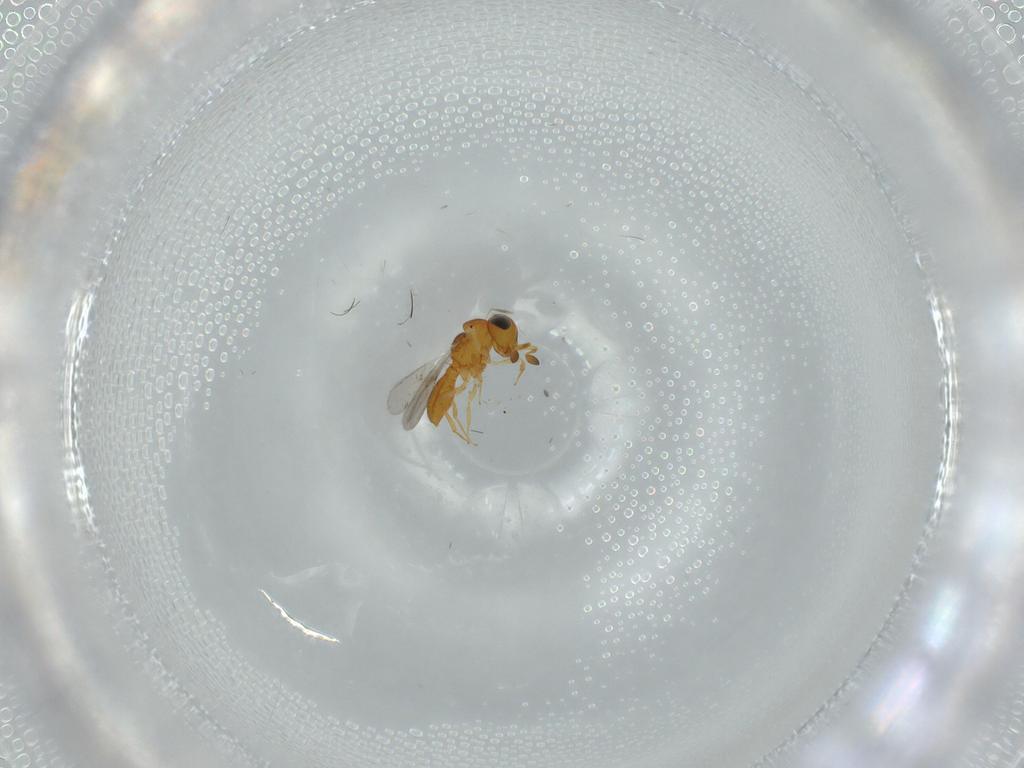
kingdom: Animalia
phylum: Arthropoda
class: Insecta
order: Hymenoptera
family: Scelionidae
